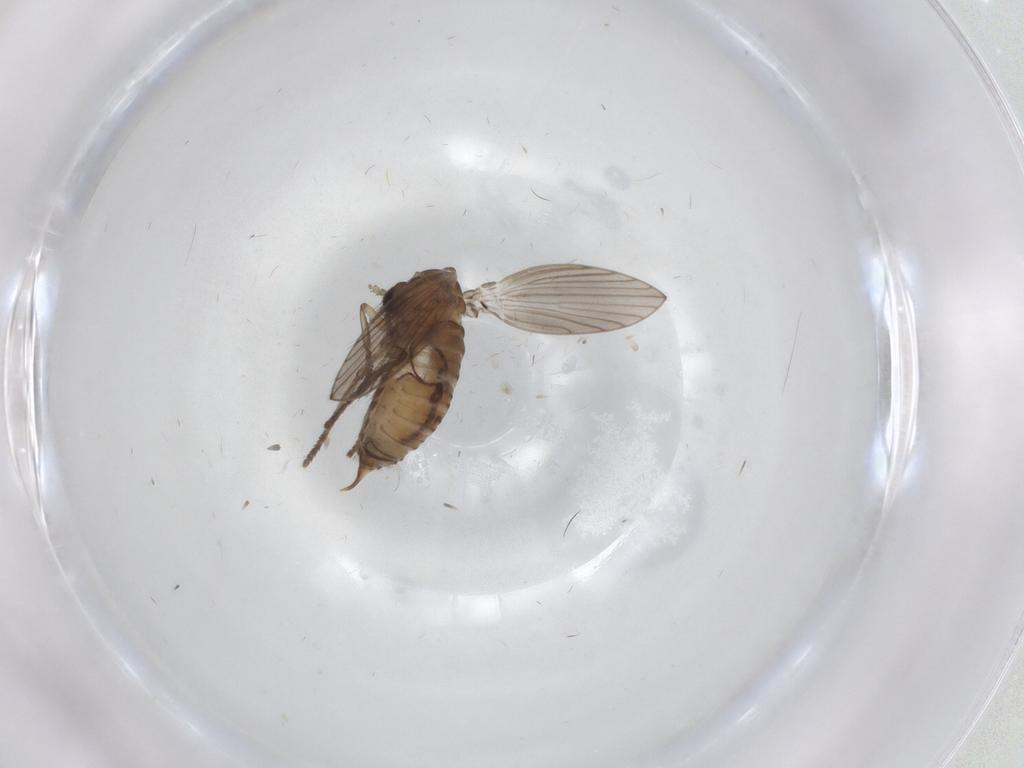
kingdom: Animalia
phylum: Arthropoda
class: Insecta
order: Diptera
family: Psychodidae
